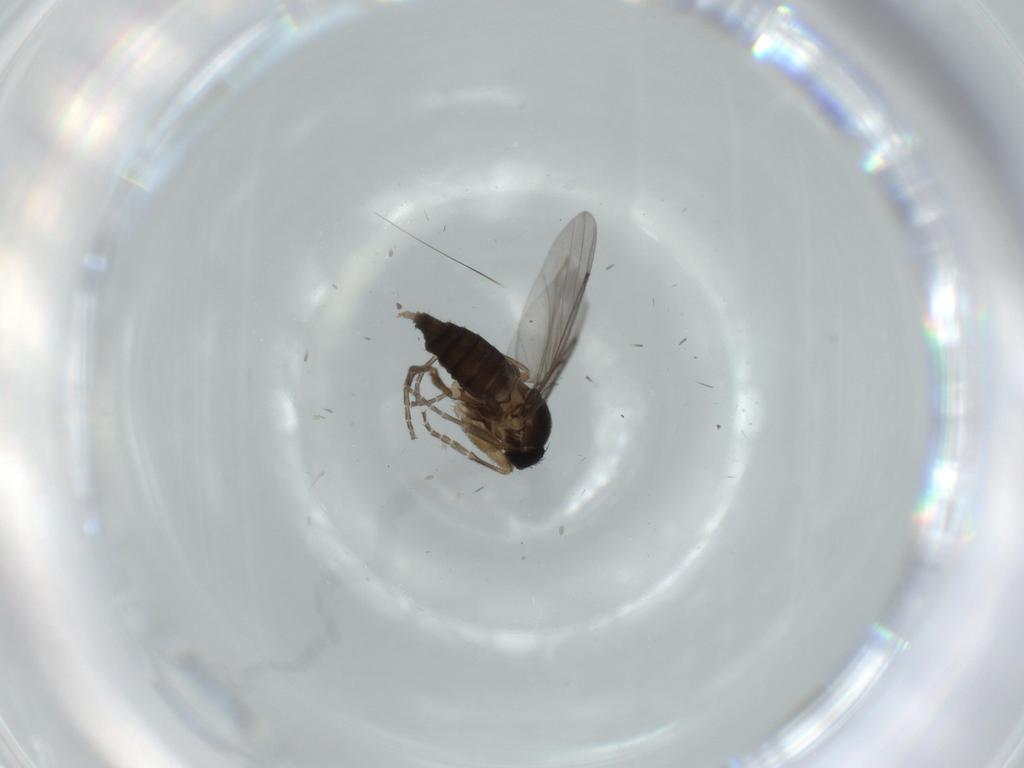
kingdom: Animalia
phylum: Arthropoda
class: Insecta
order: Diptera
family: Phoridae
